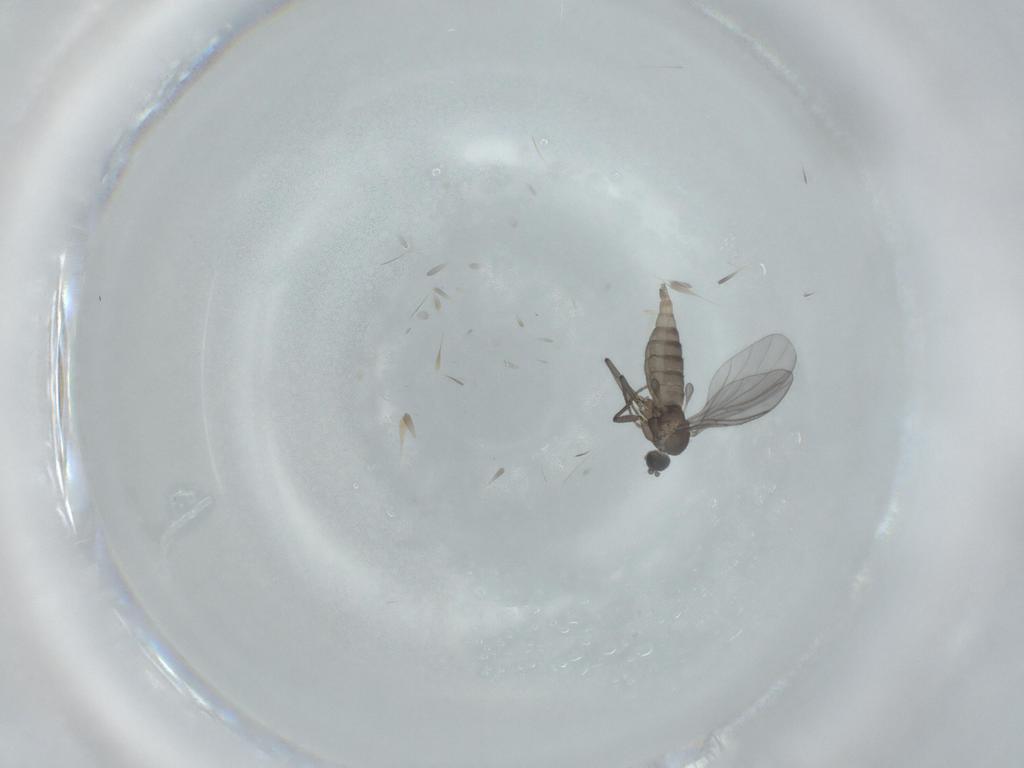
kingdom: Animalia
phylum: Arthropoda
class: Insecta
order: Diptera
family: Sciaridae
